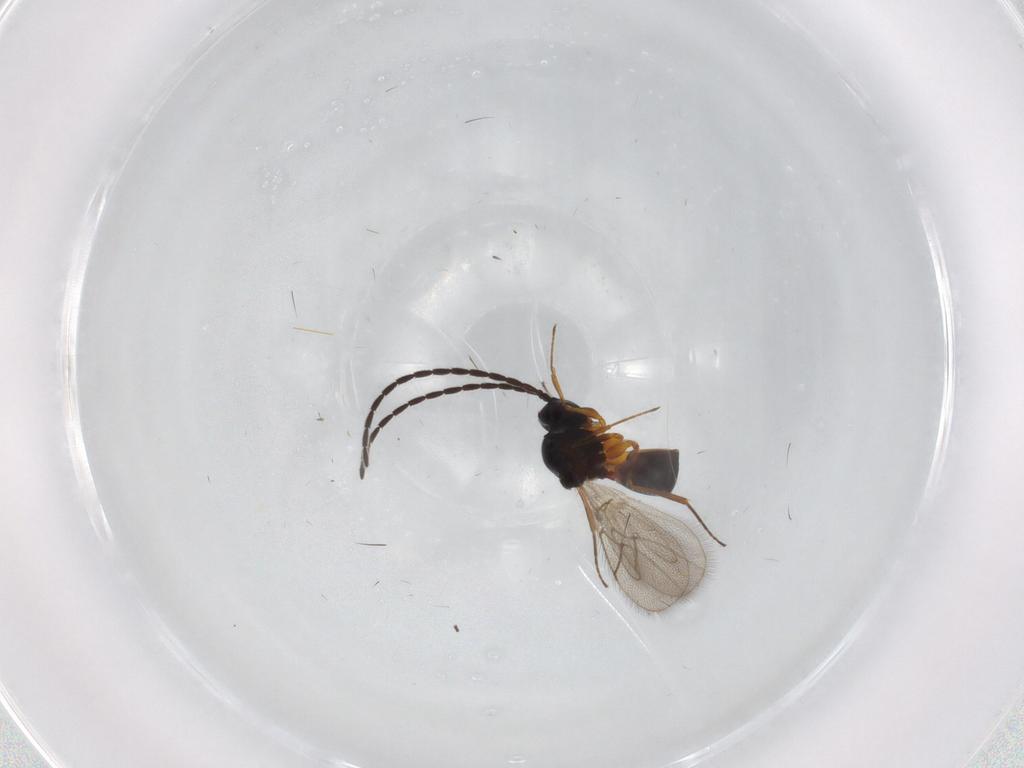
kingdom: Animalia
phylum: Arthropoda
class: Insecta
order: Hymenoptera
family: Figitidae
